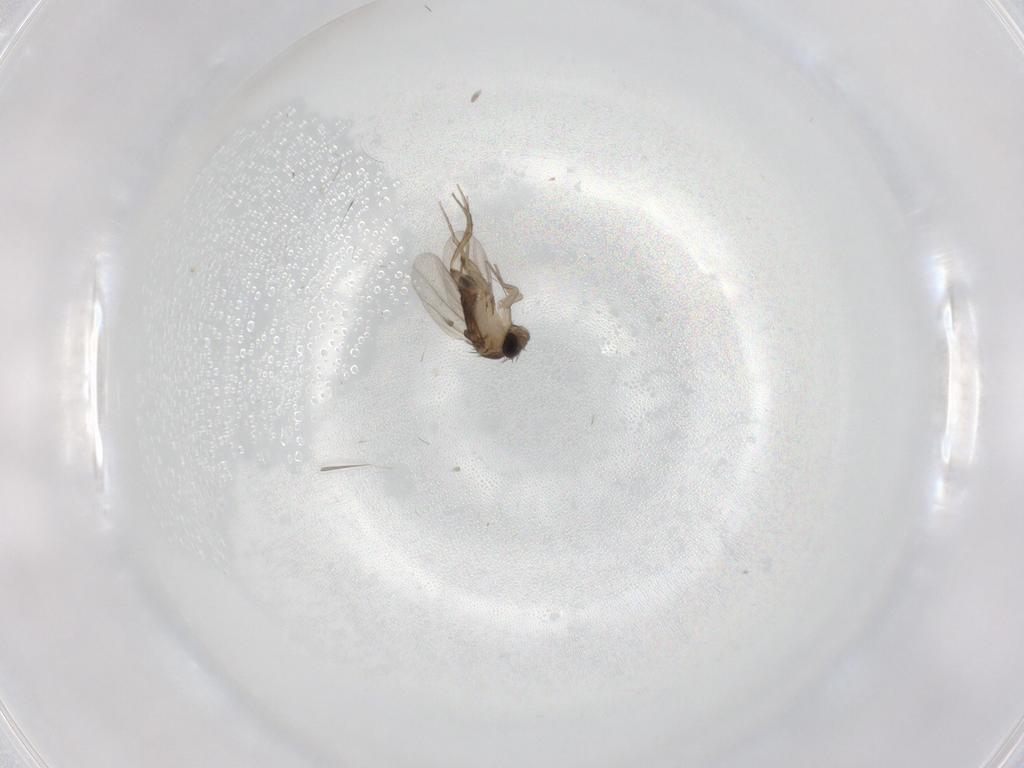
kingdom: Animalia
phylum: Arthropoda
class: Insecta
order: Diptera
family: Phoridae
